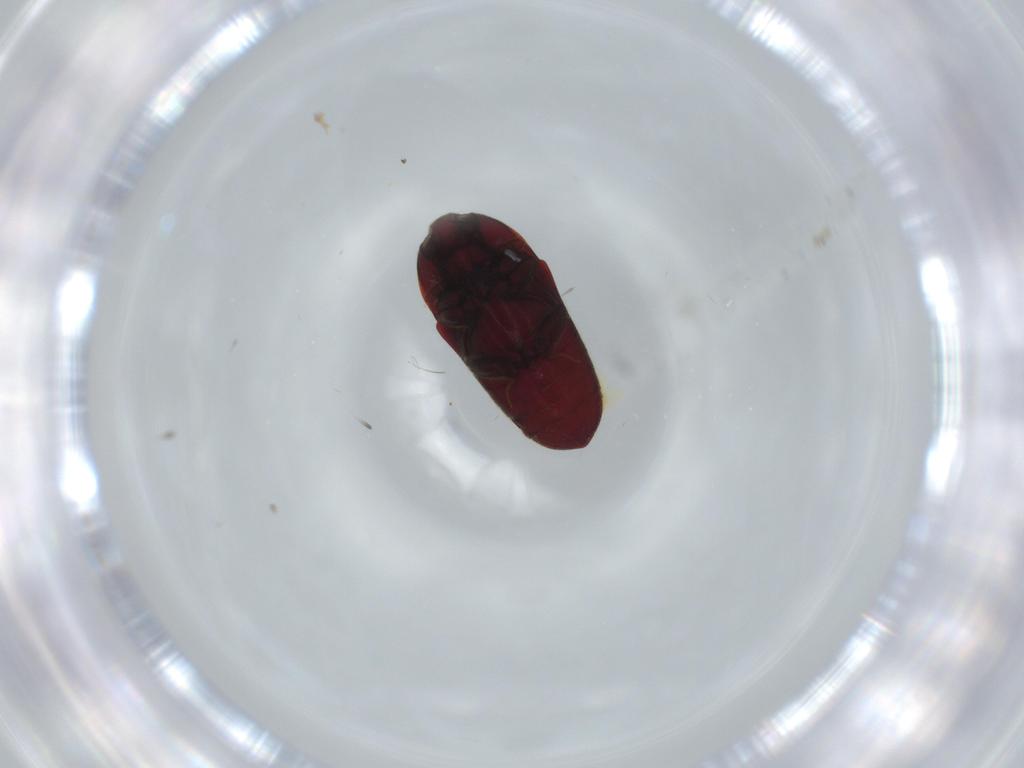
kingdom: Animalia
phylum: Arthropoda
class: Insecta
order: Coleoptera
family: Throscidae
